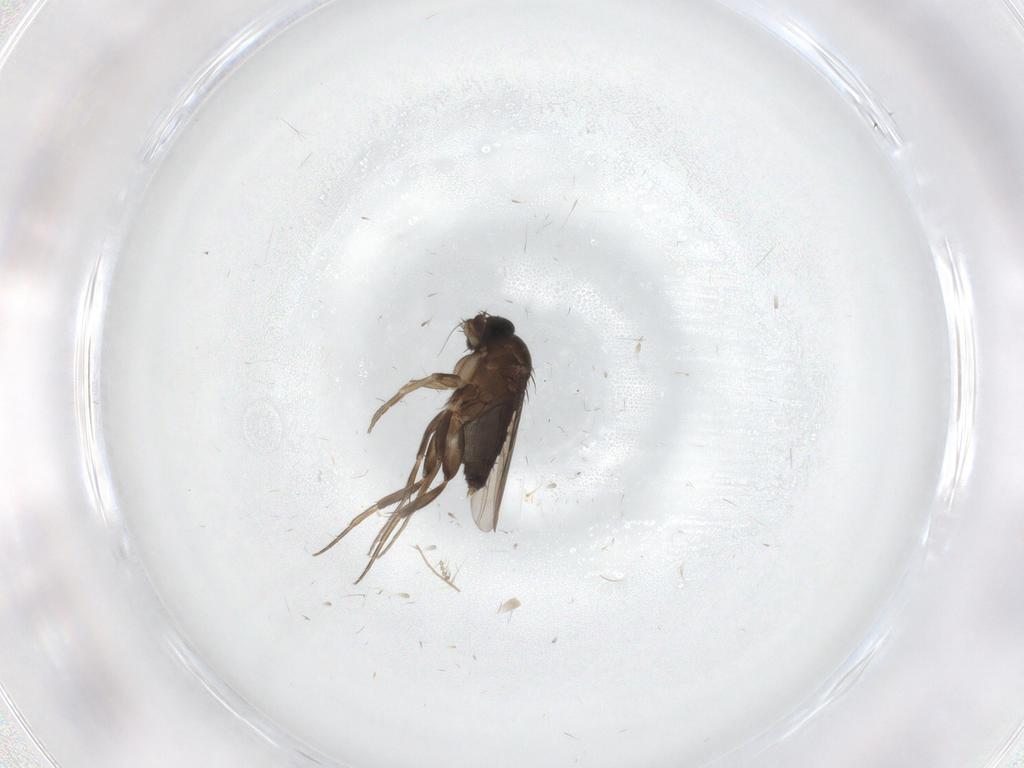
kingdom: Animalia
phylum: Arthropoda
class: Insecta
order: Diptera
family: Phoridae
